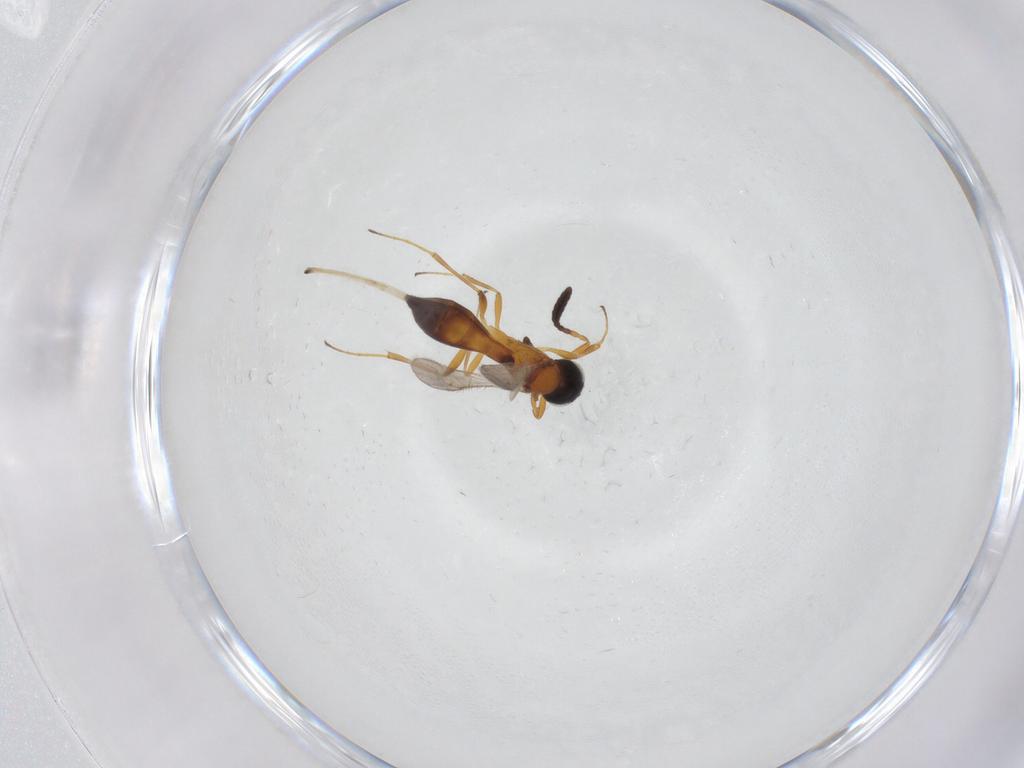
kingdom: Animalia
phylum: Arthropoda
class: Insecta
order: Hymenoptera
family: Scelionidae
